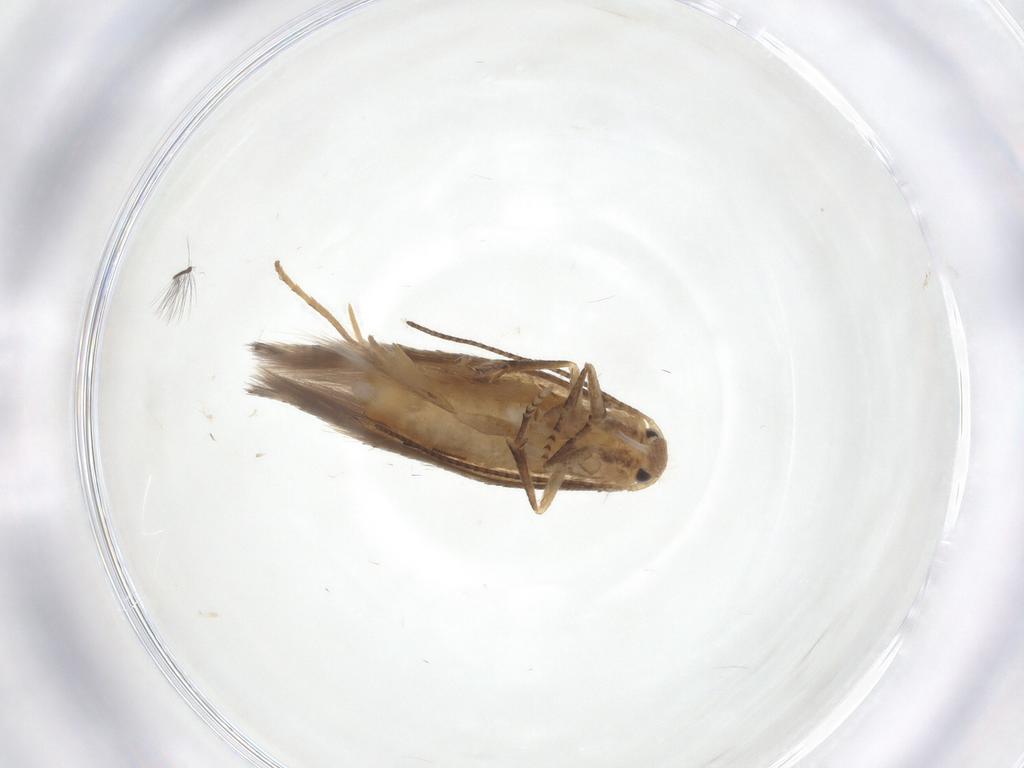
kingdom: Animalia
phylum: Arthropoda
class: Insecta
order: Lepidoptera
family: Bucculatricidae
